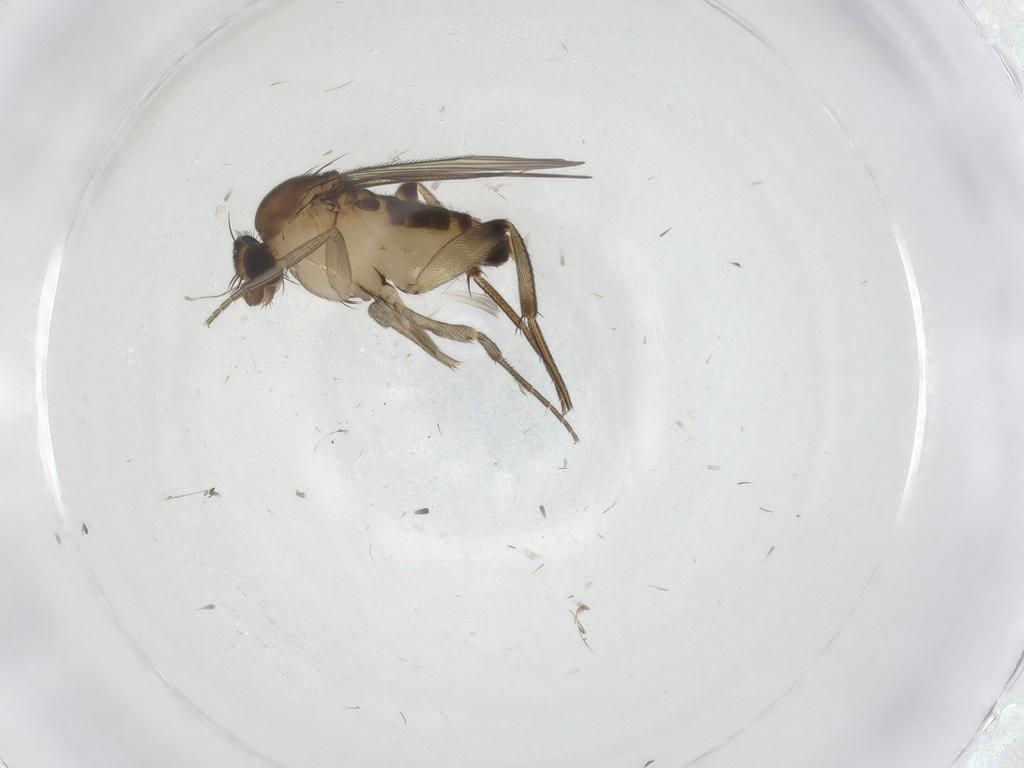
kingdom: Animalia
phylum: Arthropoda
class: Insecta
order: Diptera
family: Phoridae
